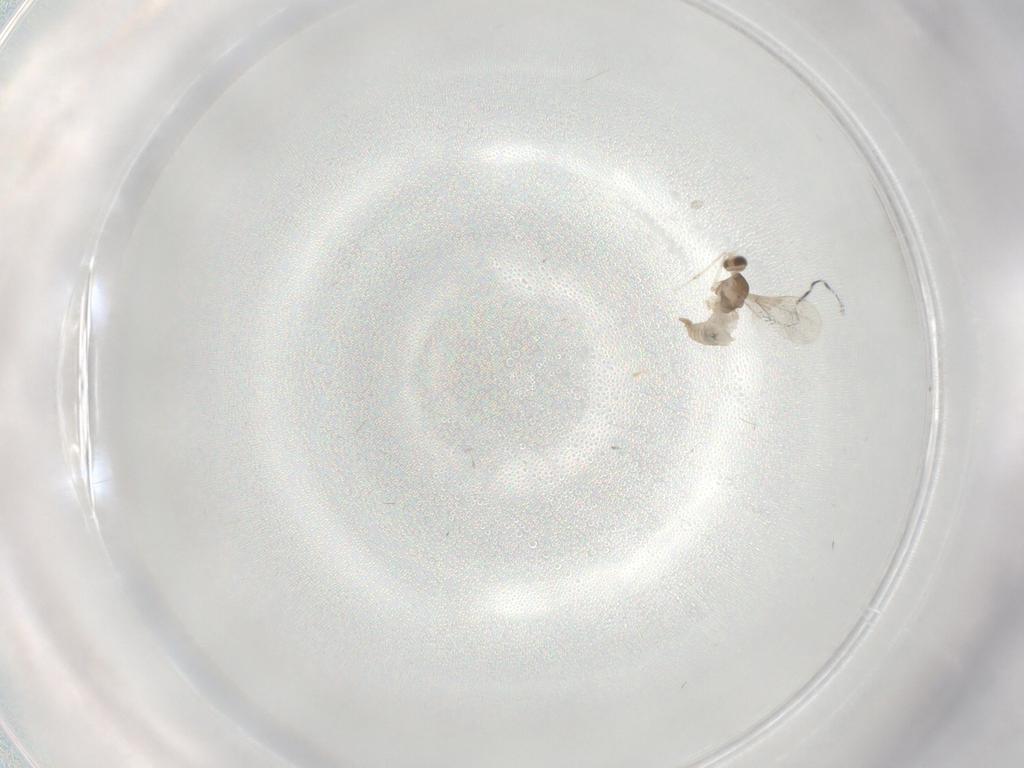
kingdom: Animalia
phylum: Arthropoda
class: Insecta
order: Diptera
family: Cecidomyiidae
